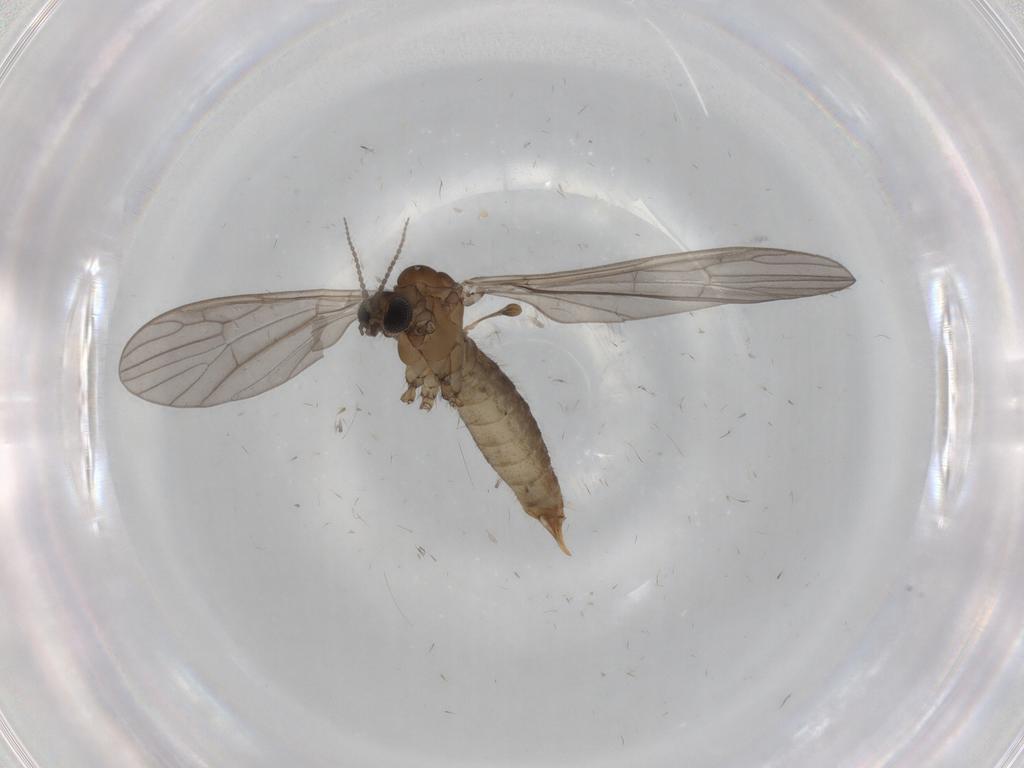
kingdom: Animalia
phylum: Arthropoda
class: Insecta
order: Diptera
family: Limoniidae
